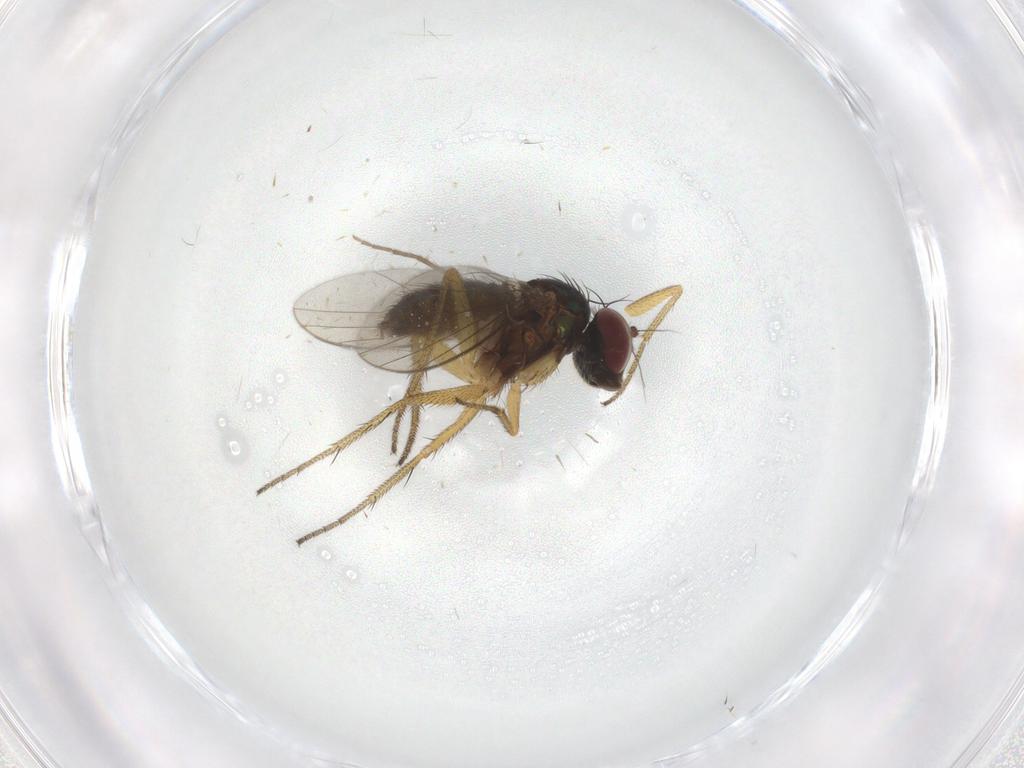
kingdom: Animalia
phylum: Arthropoda
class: Insecta
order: Diptera
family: Dolichopodidae
